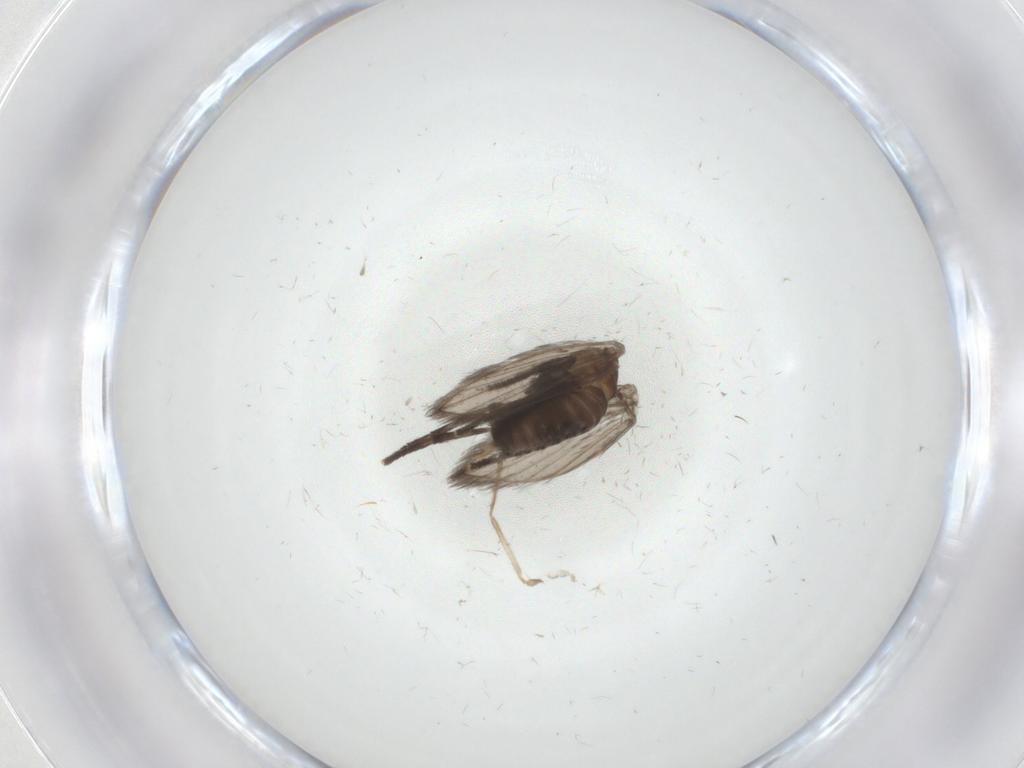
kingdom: Animalia
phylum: Arthropoda
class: Insecta
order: Diptera
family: Psychodidae
